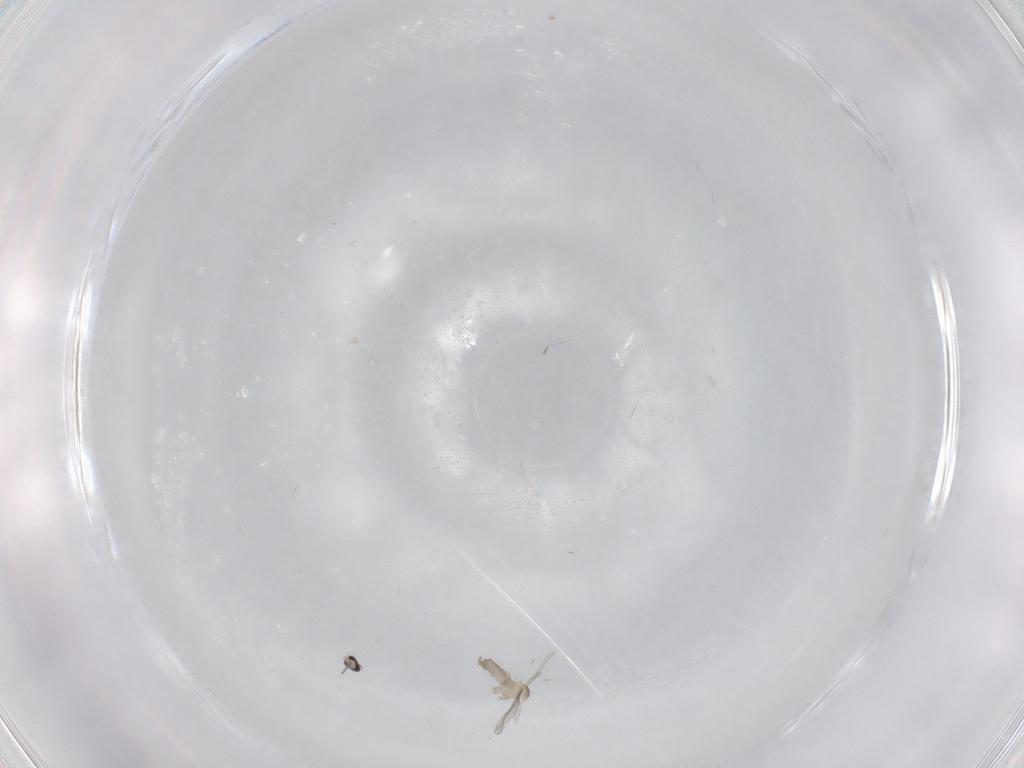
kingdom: Animalia
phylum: Arthropoda
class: Insecta
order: Diptera
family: Cecidomyiidae
